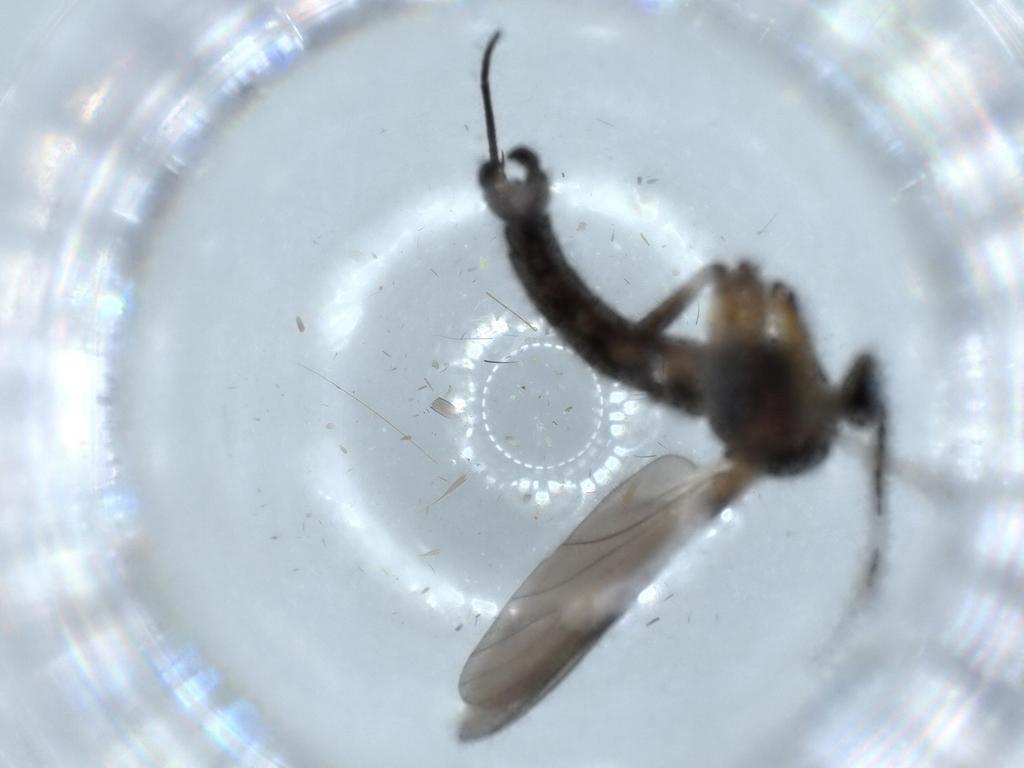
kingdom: Animalia
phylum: Arthropoda
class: Insecta
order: Diptera
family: Sciaridae
